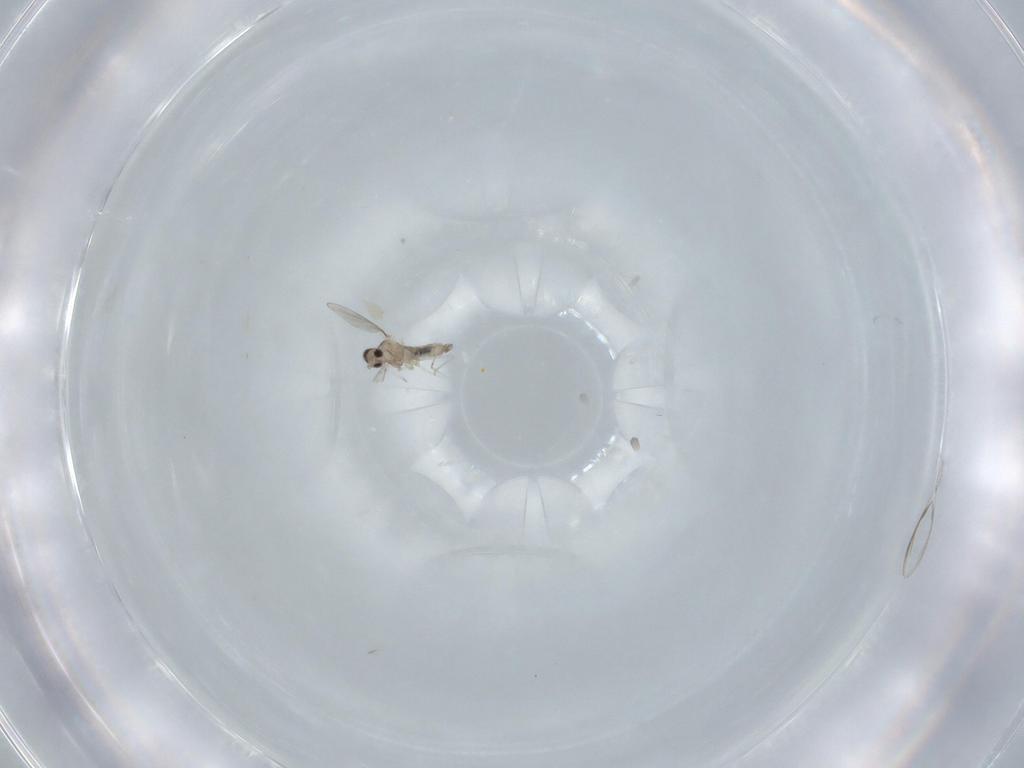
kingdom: Animalia
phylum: Arthropoda
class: Insecta
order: Diptera
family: Cecidomyiidae
